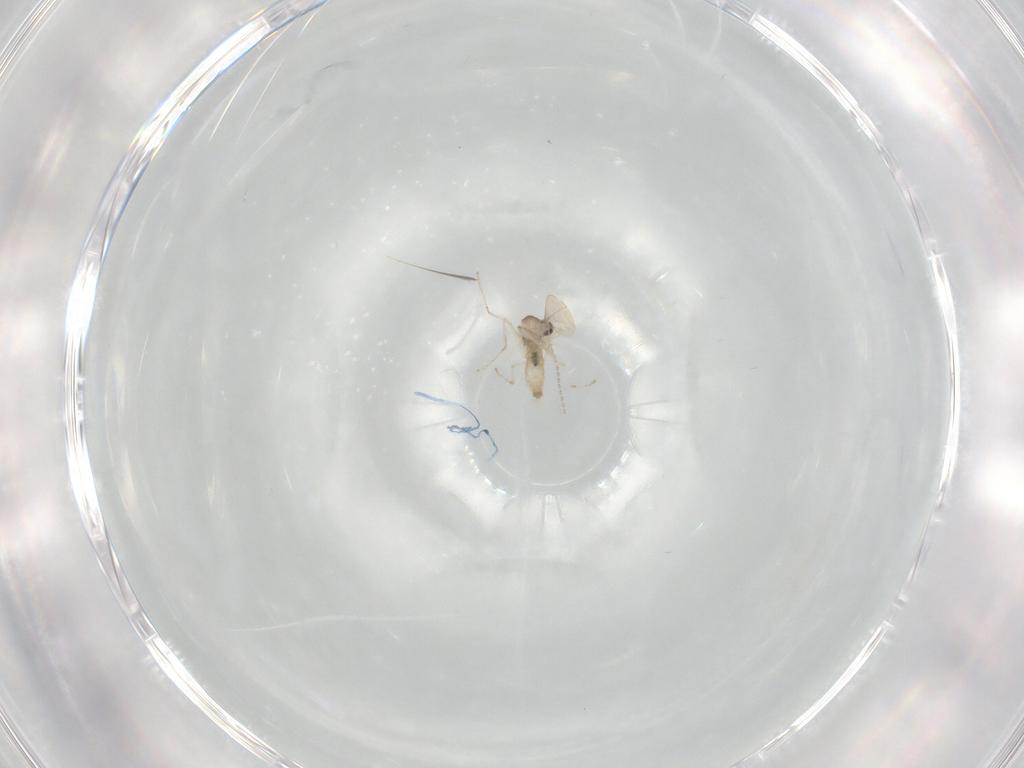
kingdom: Animalia
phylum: Arthropoda
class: Insecta
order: Diptera
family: Cecidomyiidae
